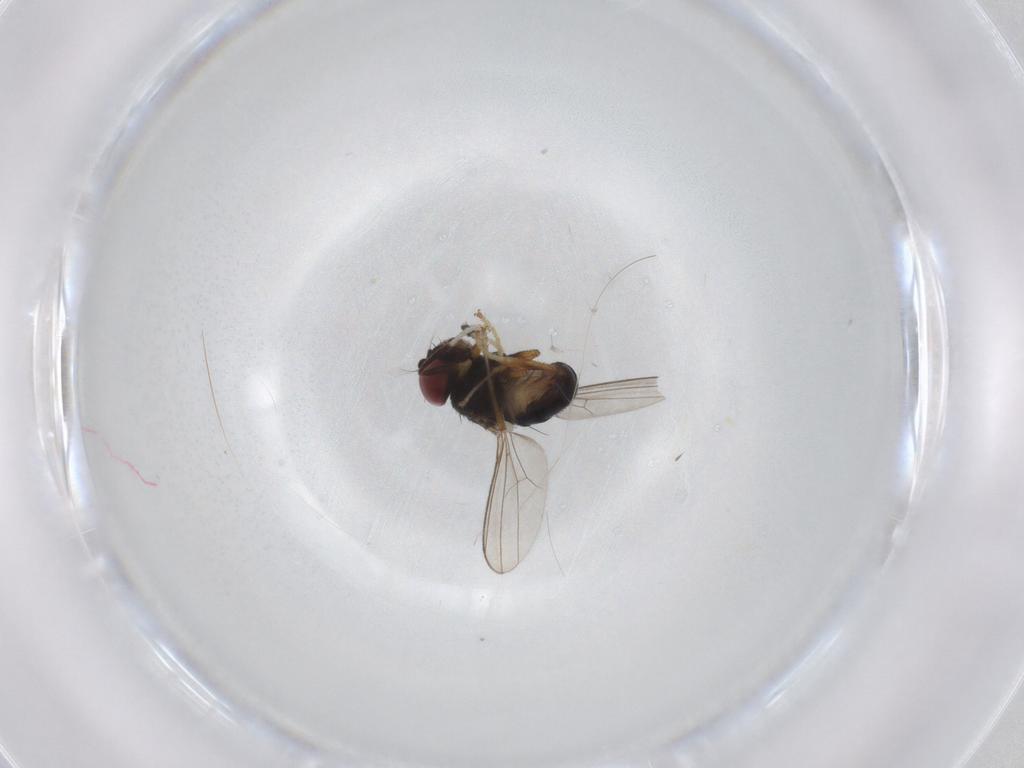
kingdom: Animalia
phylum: Arthropoda
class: Insecta
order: Diptera
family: Ephydridae
